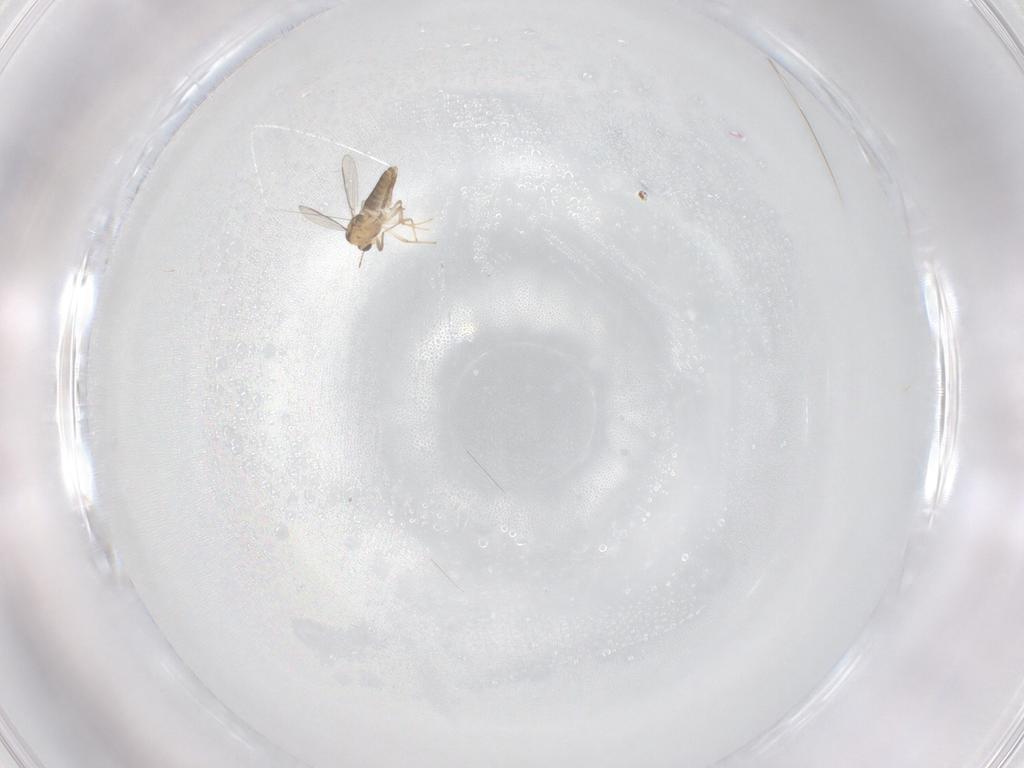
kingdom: Animalia
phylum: Arthropoda
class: Insecta
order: Diptera
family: Chironomidae
